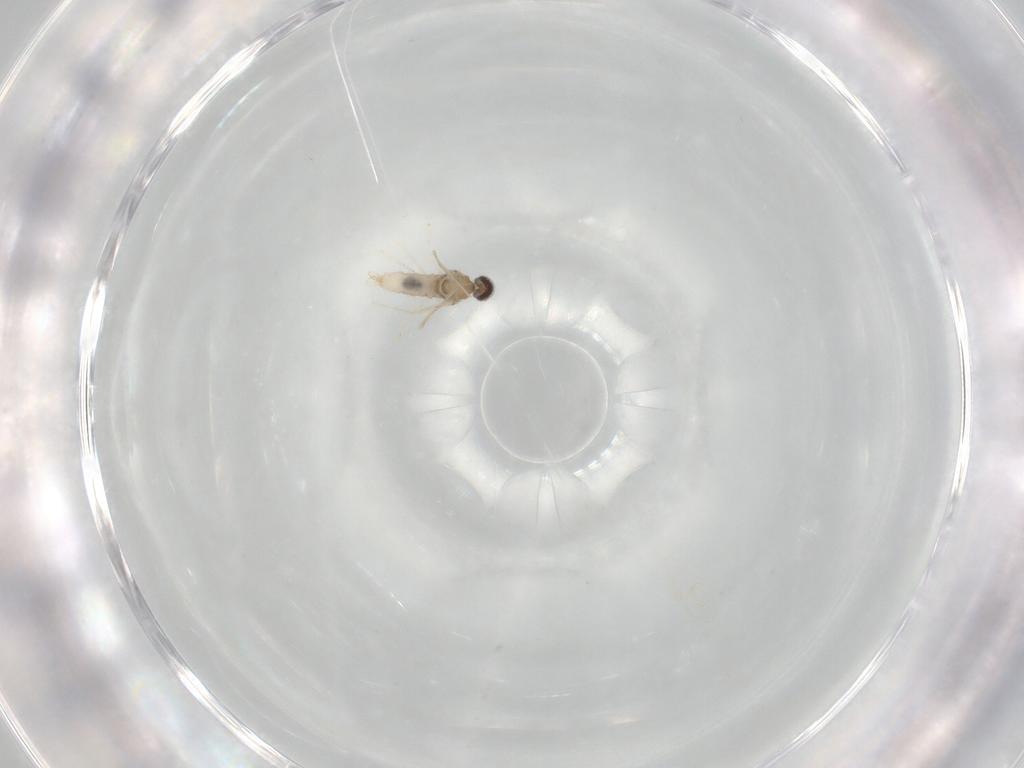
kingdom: Animalia
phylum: Arthropoda
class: Insecta
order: Diptera
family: Cecidomyiidae
